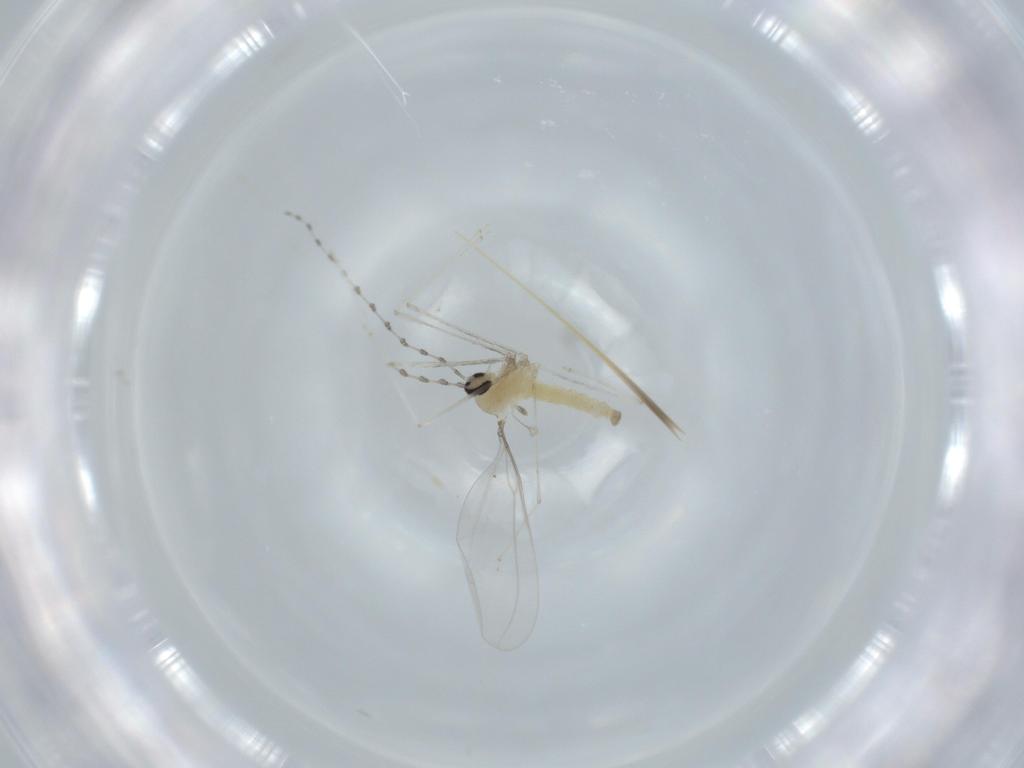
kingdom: Animalia
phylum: Arthropoda
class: Insecta
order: Diptera
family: Cecidomyiidae
